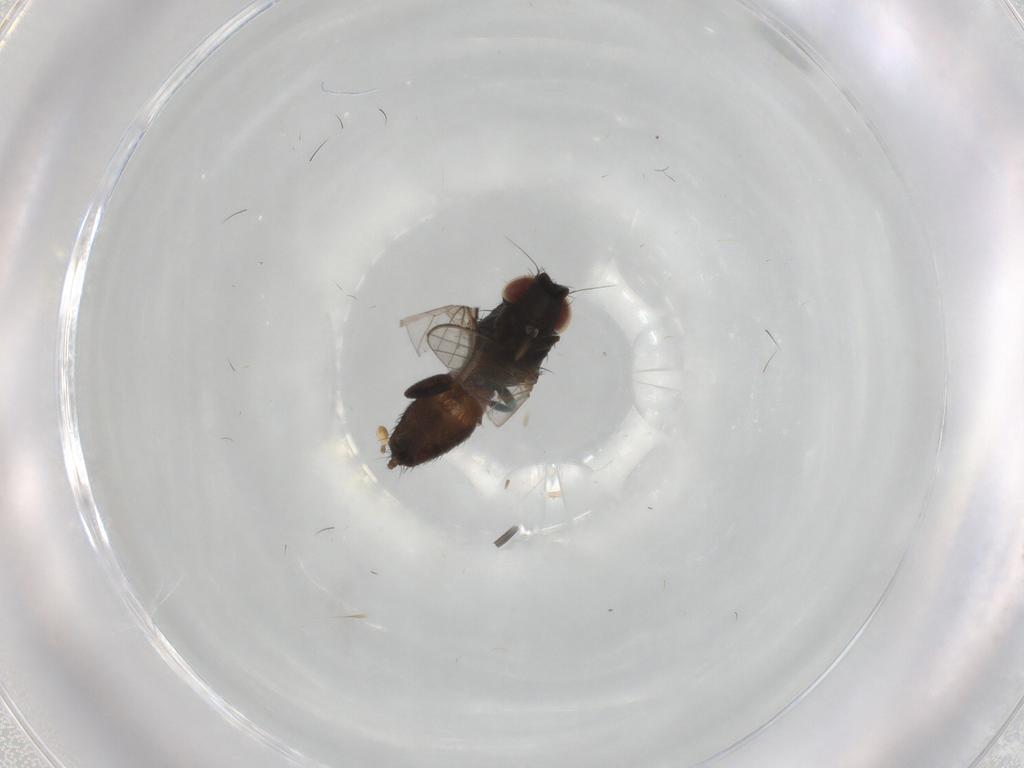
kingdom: Animalia
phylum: Arthropoda
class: Insecta
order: Diptera
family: Milichiidae
